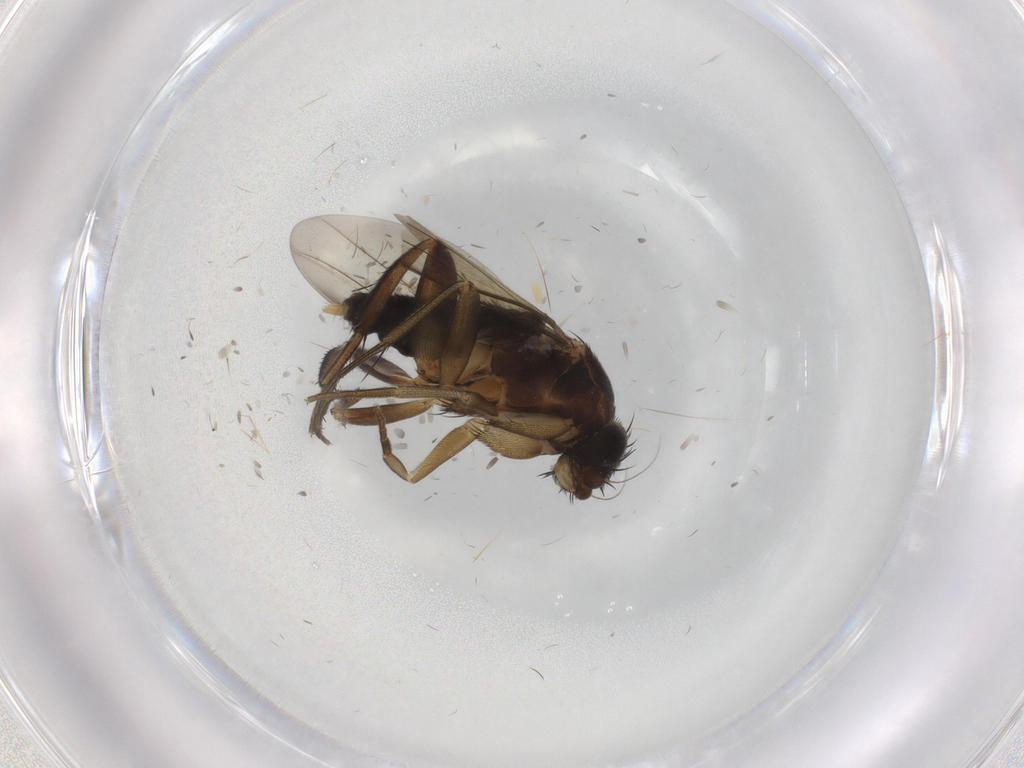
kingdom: Animalia
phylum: Arthropoda
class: Insecta
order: Diptera
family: Phoridae
